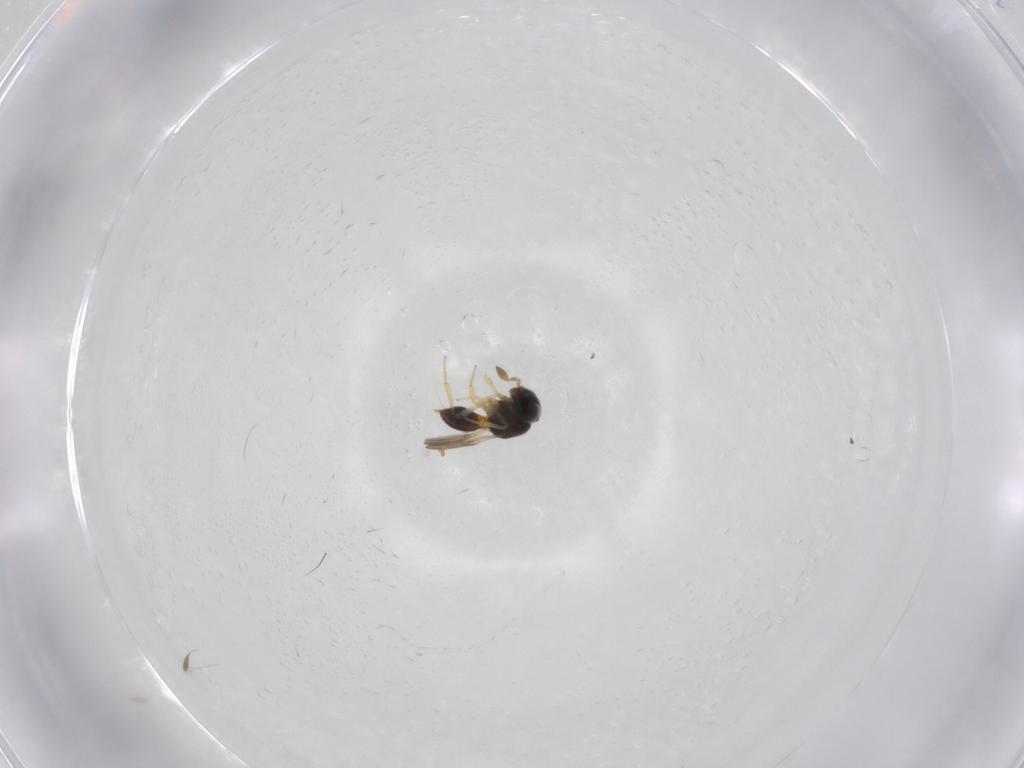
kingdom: Animalia
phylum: Arthropoda
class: Insecta
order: Hymenoptera
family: Scelionidae
